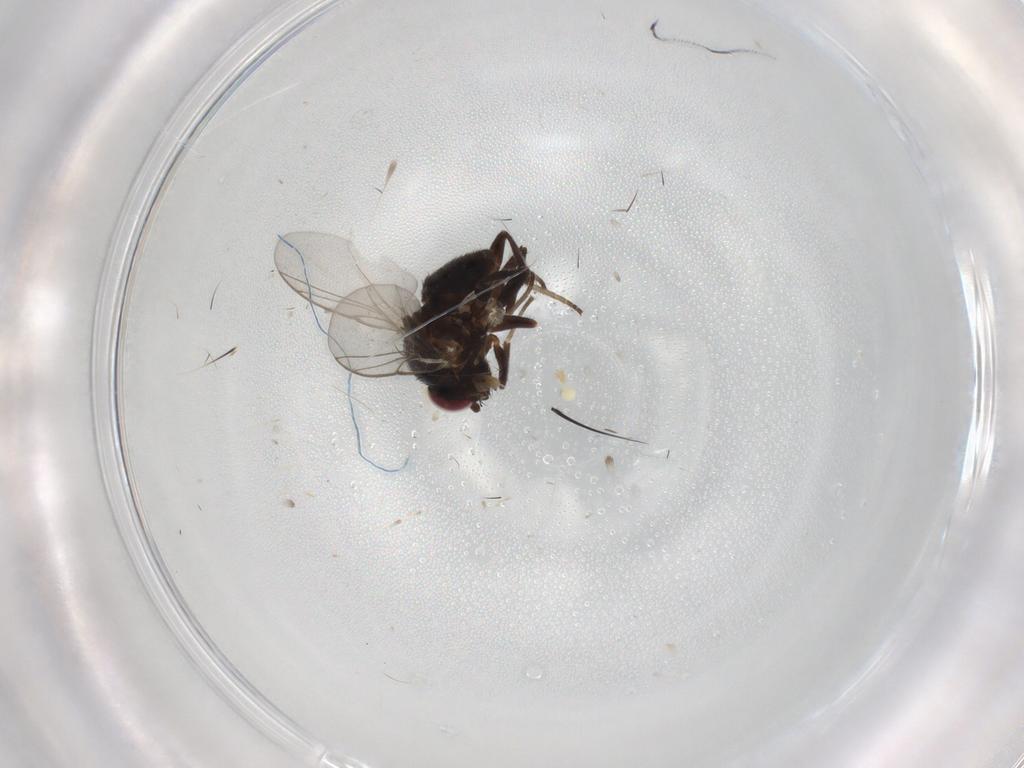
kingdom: Animalia
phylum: Arthropoda
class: Insecta
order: Diptera
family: Agromyzidae
